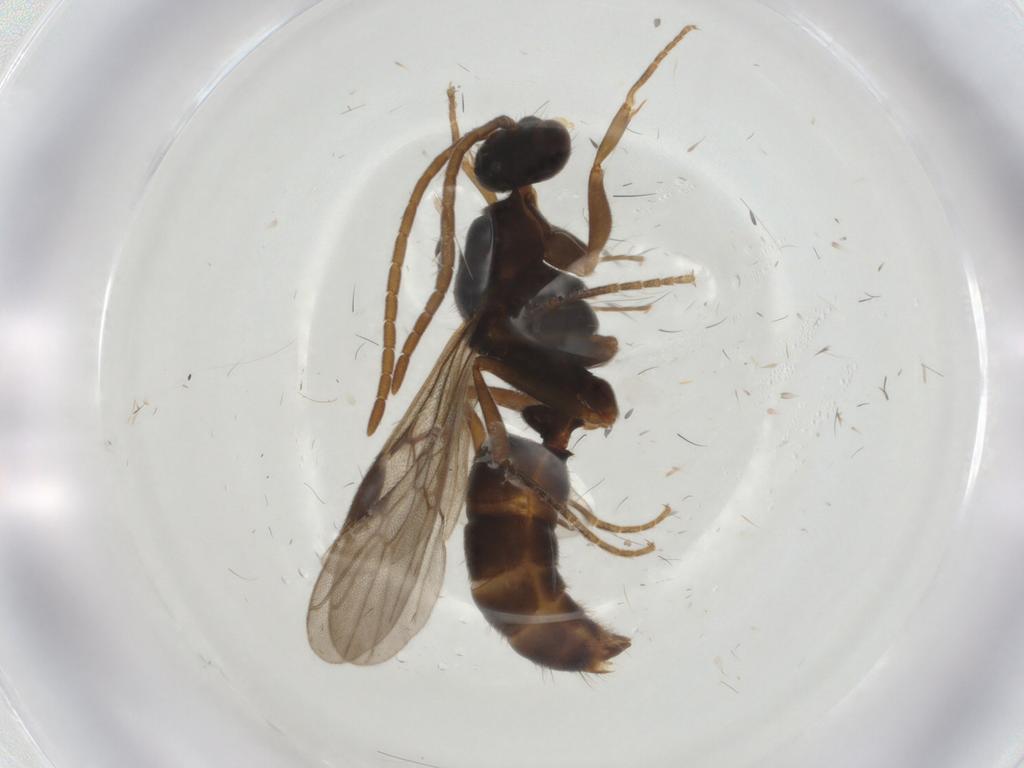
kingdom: Animalia
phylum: Arthropoda
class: Insecta
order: Hymenoptera
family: Formicidae
